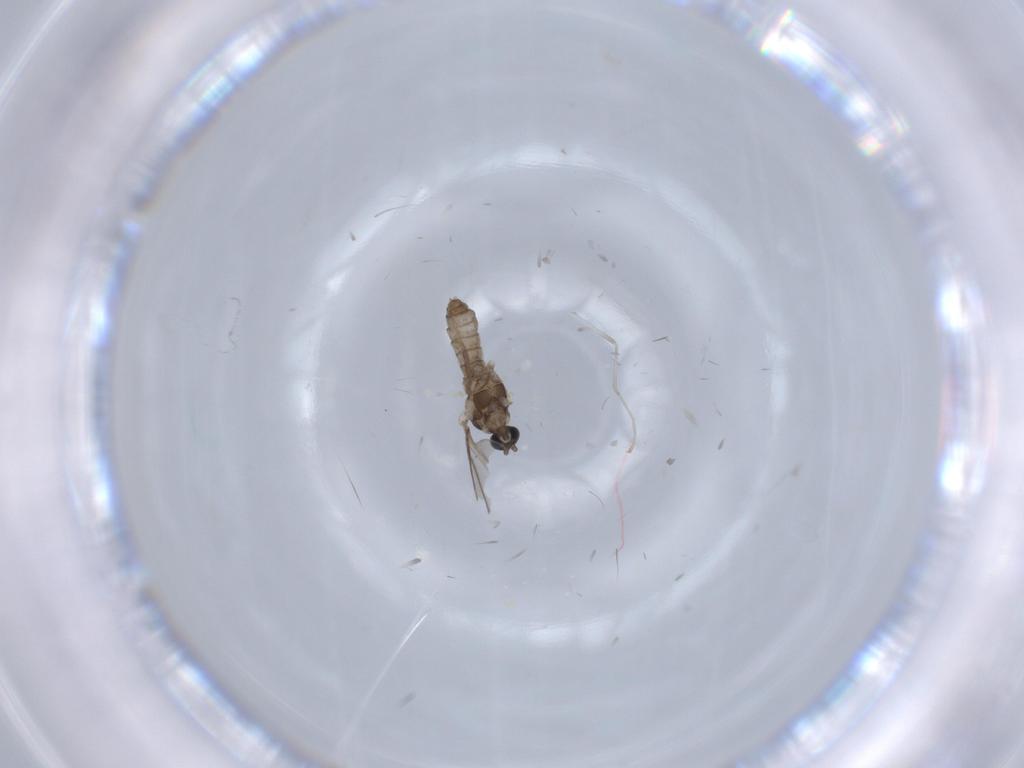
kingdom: Animalia
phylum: Arthropoda
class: Insecta
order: Diptera
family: Cecidomyiidae
